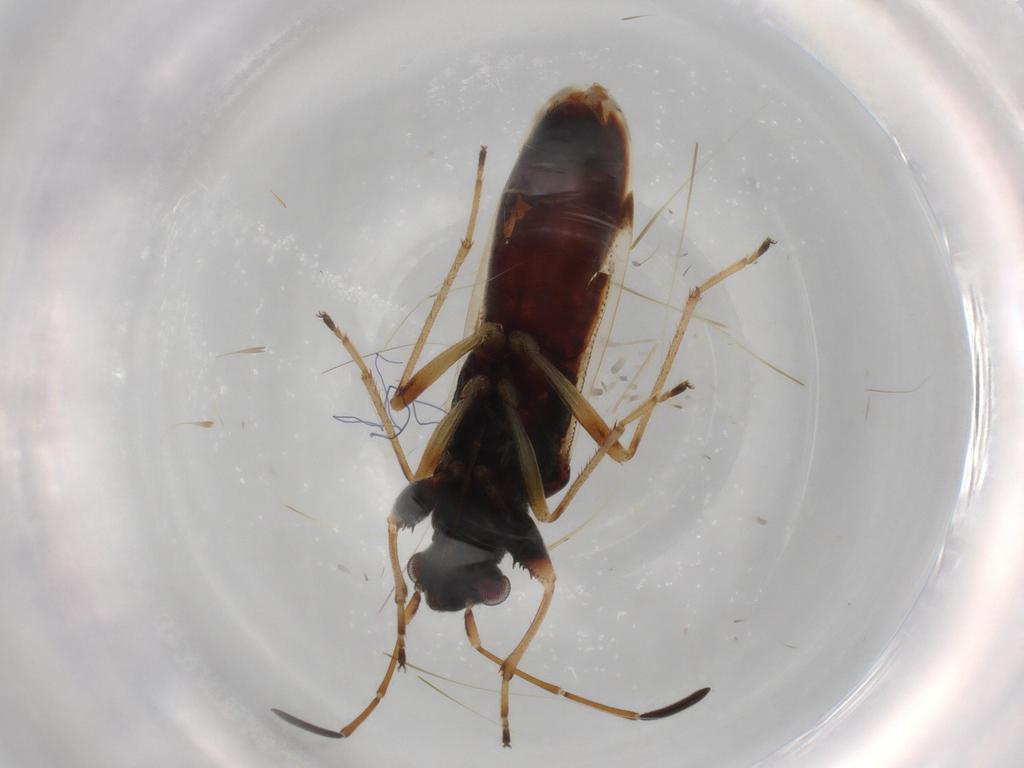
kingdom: Animalia
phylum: Arthropoda
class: Insecta
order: Hemiptera
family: Rhyparochromidae
